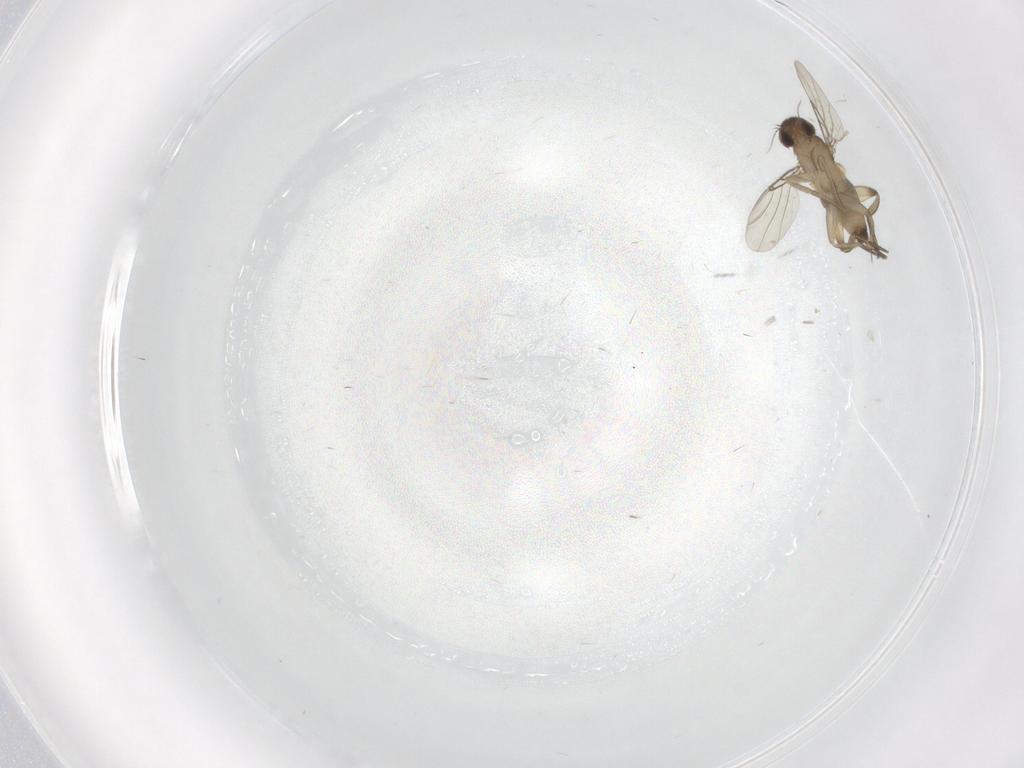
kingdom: Animalia
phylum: Arthropoda
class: Insecta
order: Diptera
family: Phoridae
